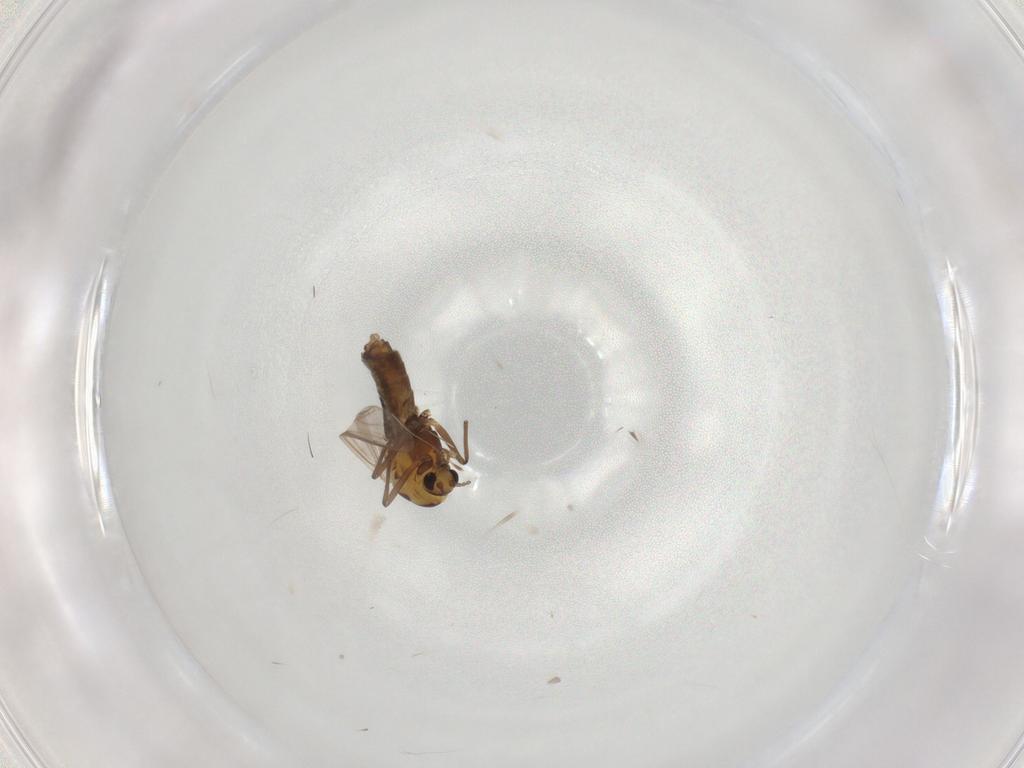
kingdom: Animalia
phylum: Arthropoda
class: Insecta
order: Diptera
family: Chironomidae
